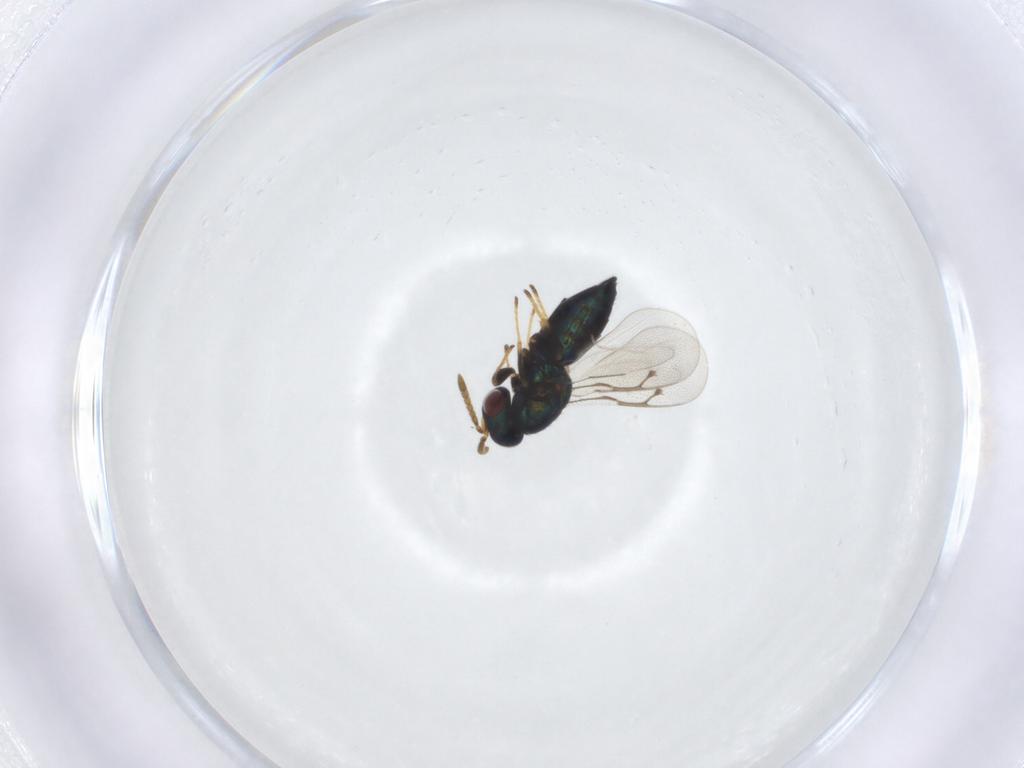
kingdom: Animalia
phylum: Arthropoda
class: Insecta
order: Hymenoptera
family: Pteromalidae
